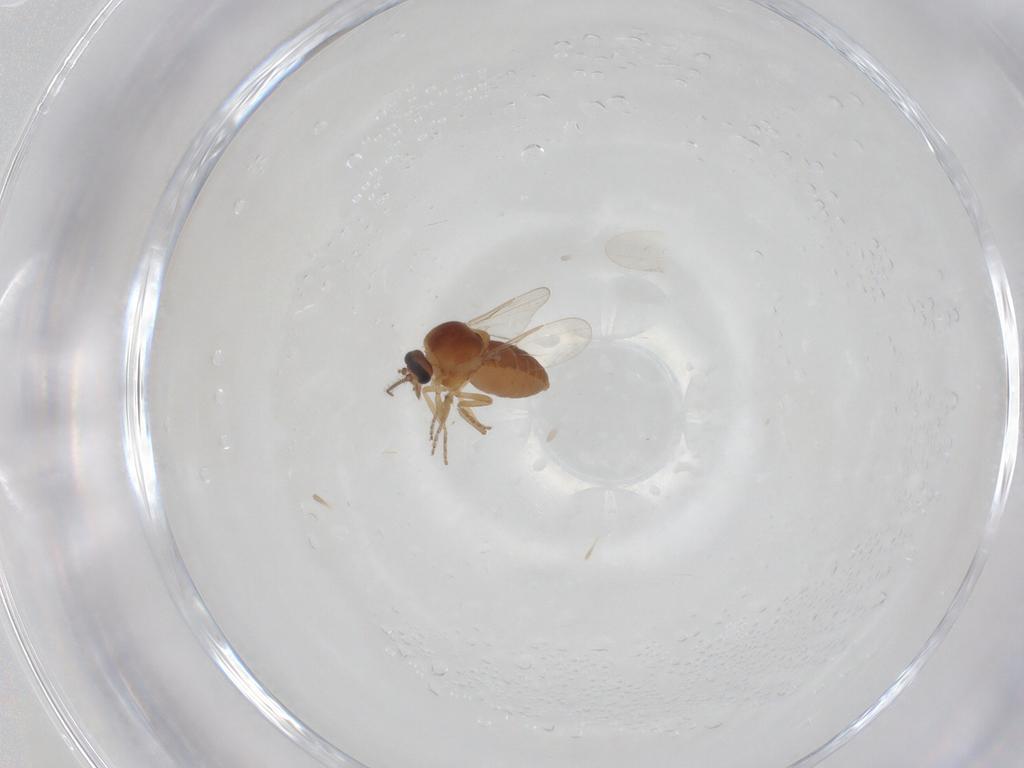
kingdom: Animalia
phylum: Arthropoda
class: Insecta
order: Diptera
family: Ceratopogonidae
